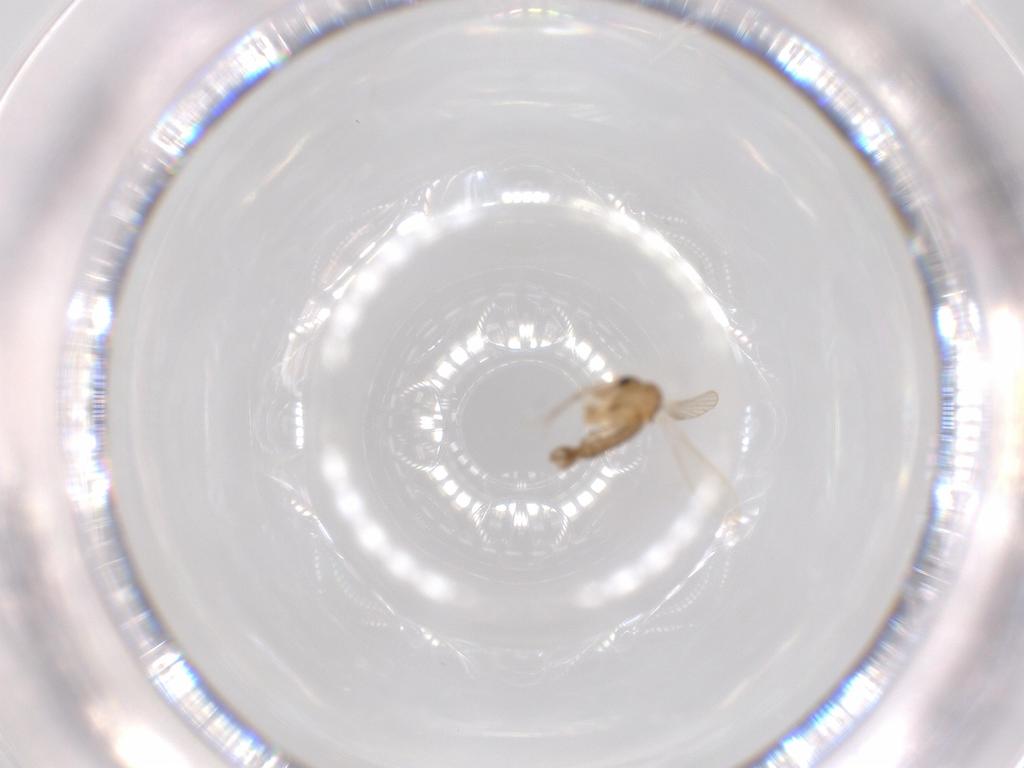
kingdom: Animalia
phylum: Arthropoda
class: Insecta
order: Diptera
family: Psychodidae
